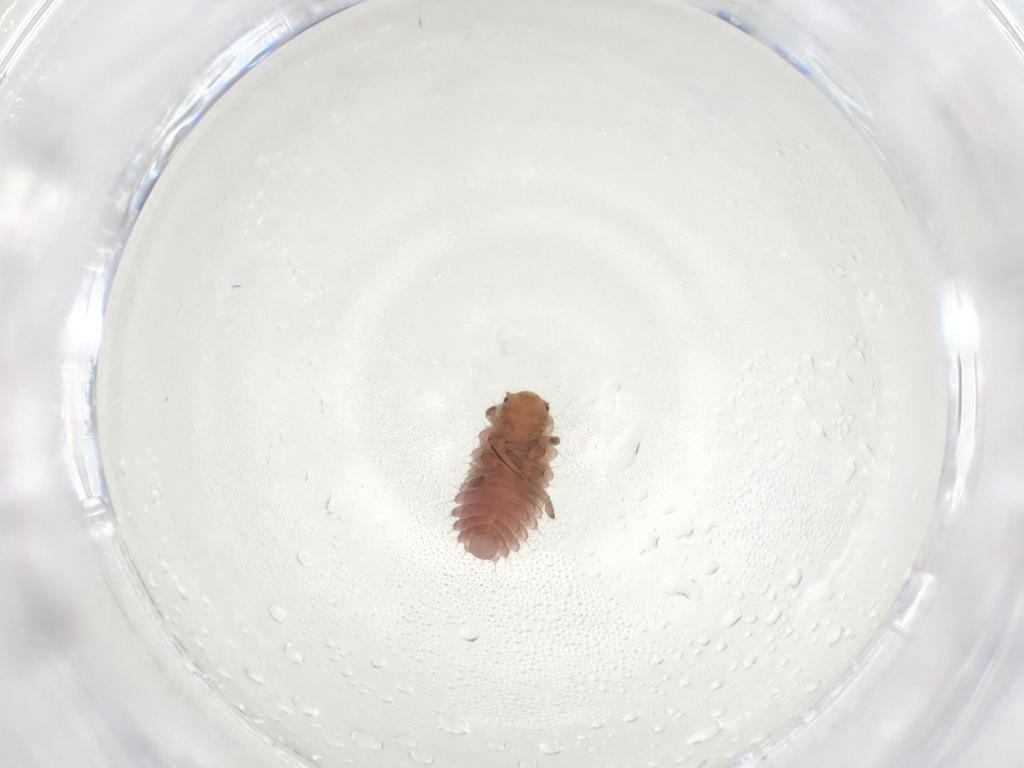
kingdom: Animalia
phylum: Arthropoda
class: Insecta
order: Coleoptera
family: Coccinellidae
